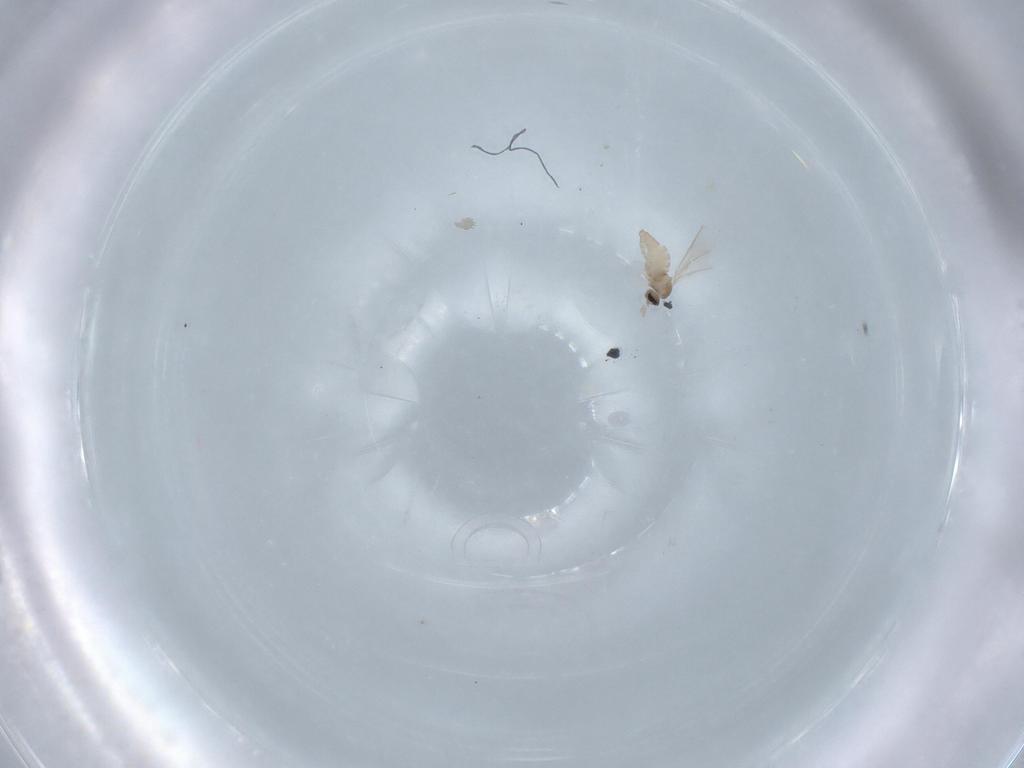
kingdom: Animalia
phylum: Arthropoda
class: Insecta
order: Diptera
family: Cecidomyiidae
